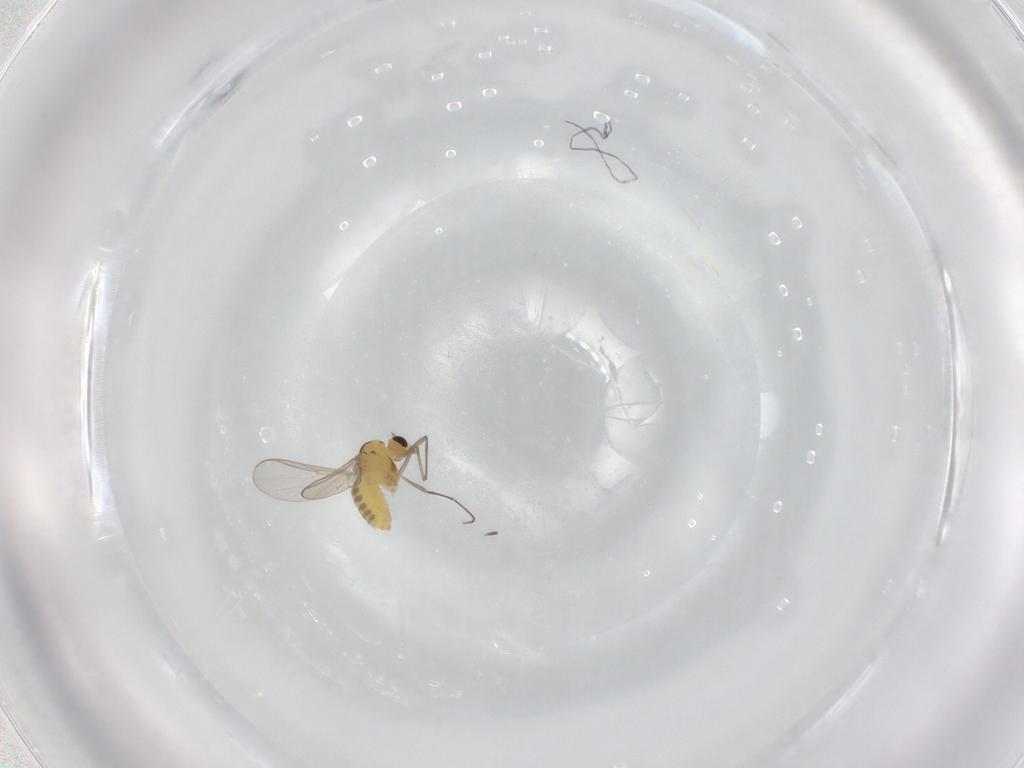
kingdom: Animalia
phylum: Arthropoda
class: Insecta
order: Diptera
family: Chironomidae
